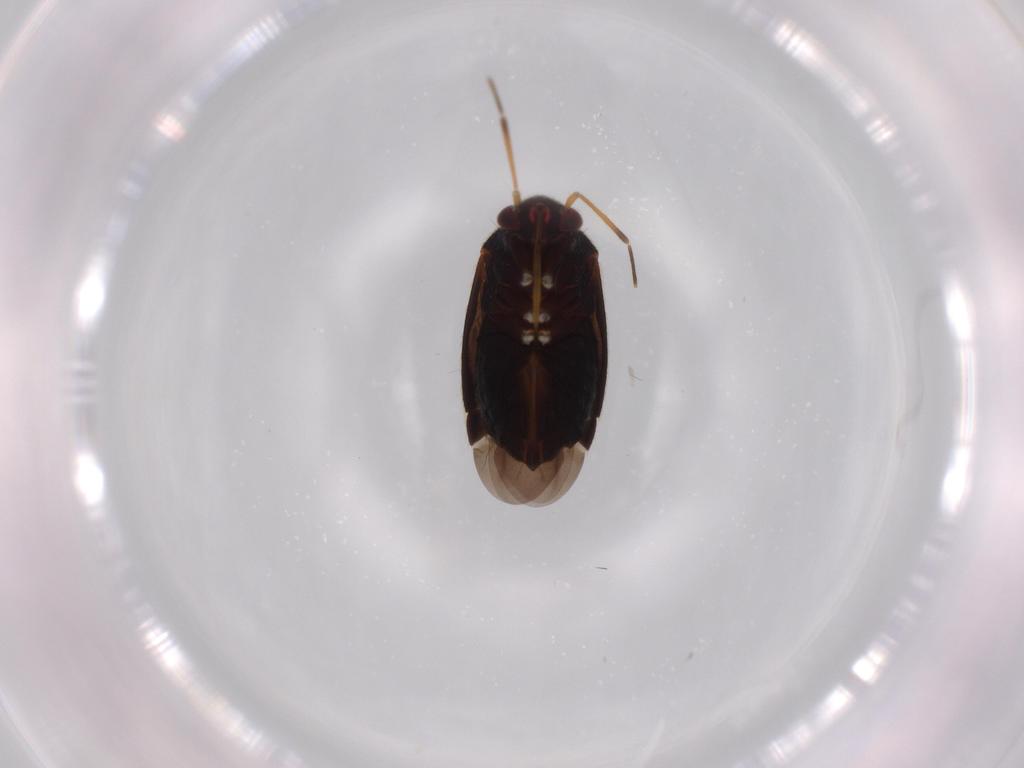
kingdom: Animalia
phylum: Arthropoda
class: Insecta
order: Hemiptera
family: Miridae
